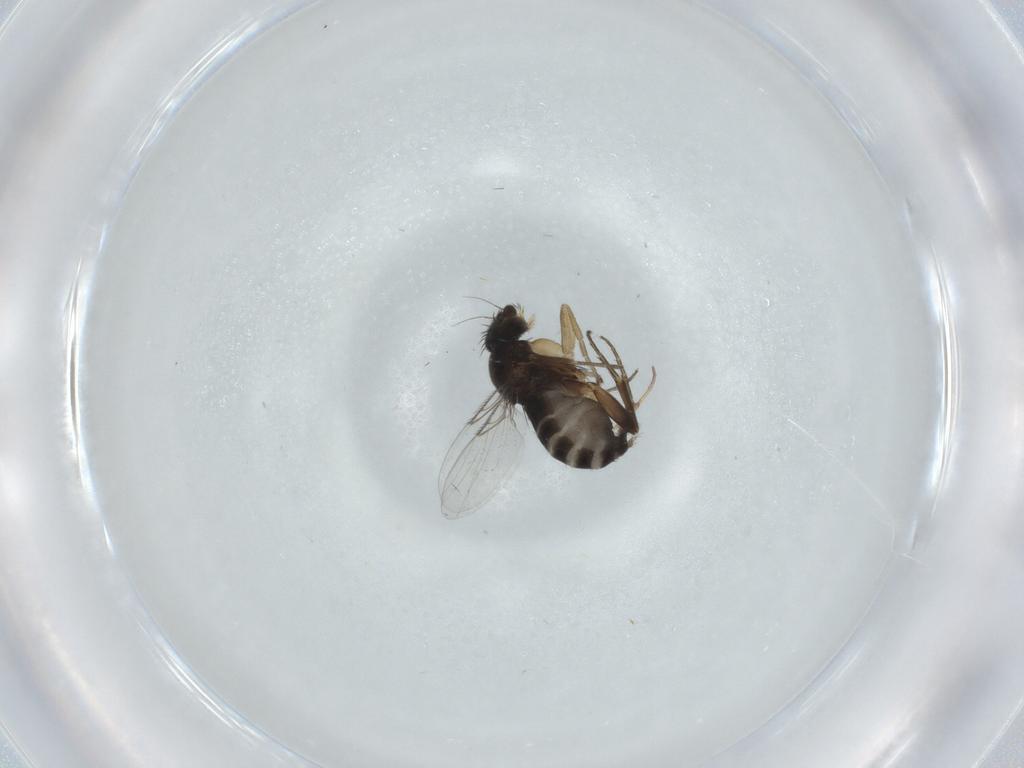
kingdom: Animalia
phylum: Arthropoda
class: Insecta
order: Diptera
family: Phoridae
